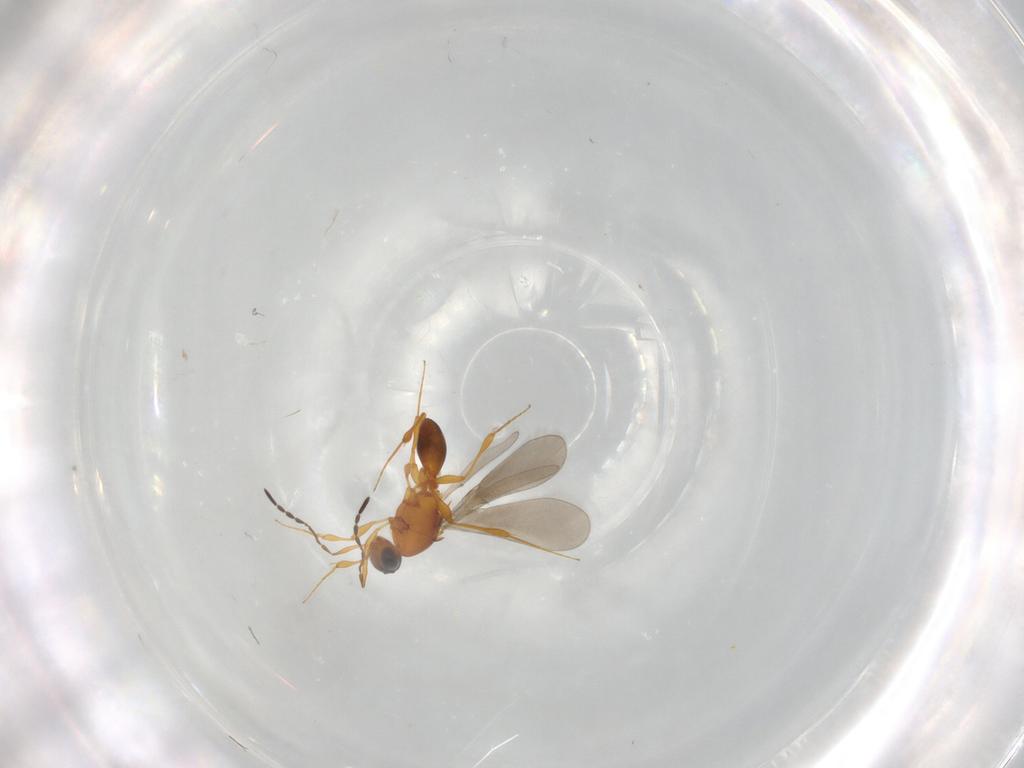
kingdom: Animalia
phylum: Arthropoda
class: Insecta
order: Hymenoptera
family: Platygastridae
